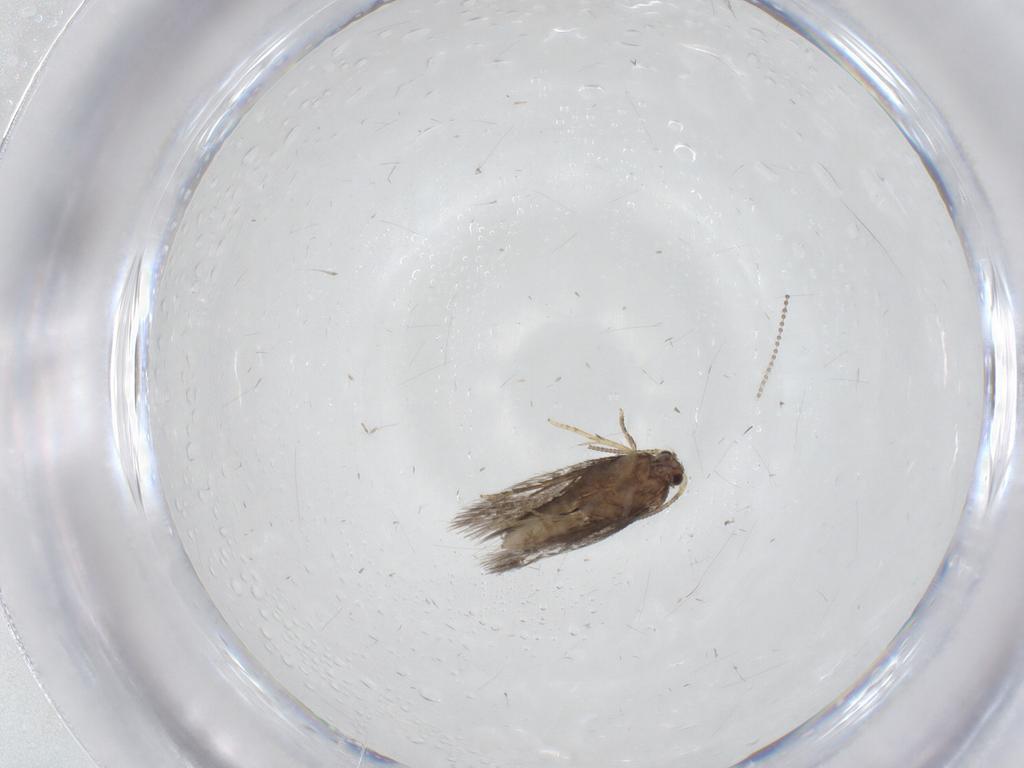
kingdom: Animalia
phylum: Arthropoda
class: Insecta
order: Lepidoptera
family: Nepticulidae
